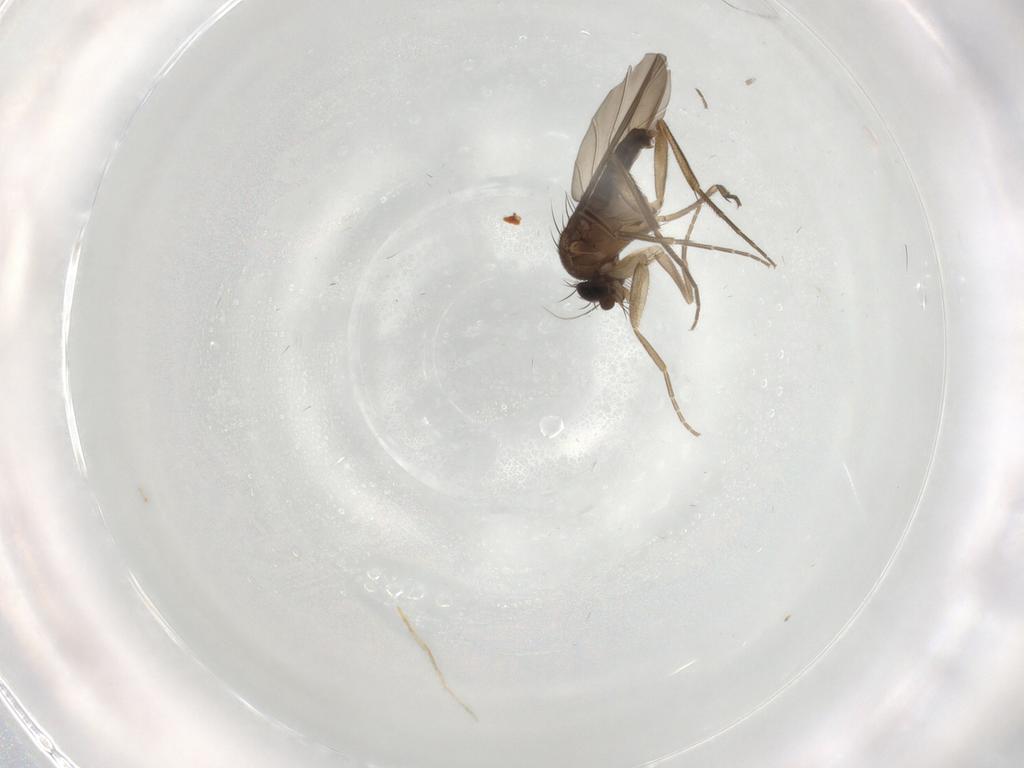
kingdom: Animalia
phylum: Arthropoda
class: Insecta
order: Diptera
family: Phoridae
